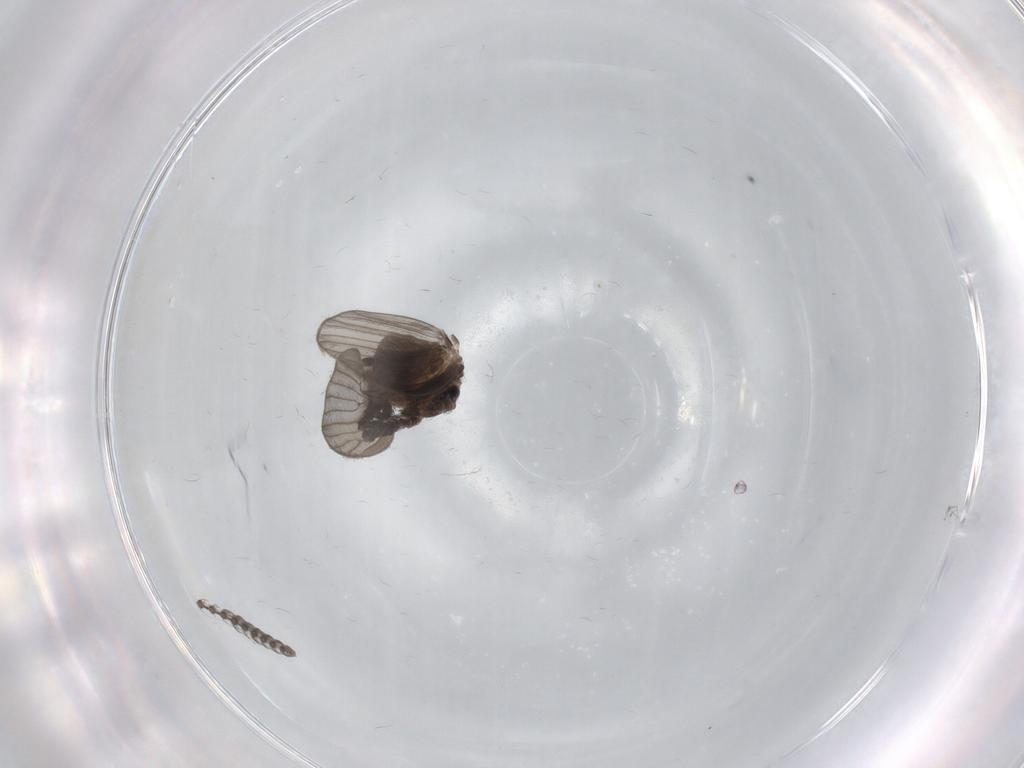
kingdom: Animalia
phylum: Arthropoda
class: Insecta
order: Diptera
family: Psychodidae
